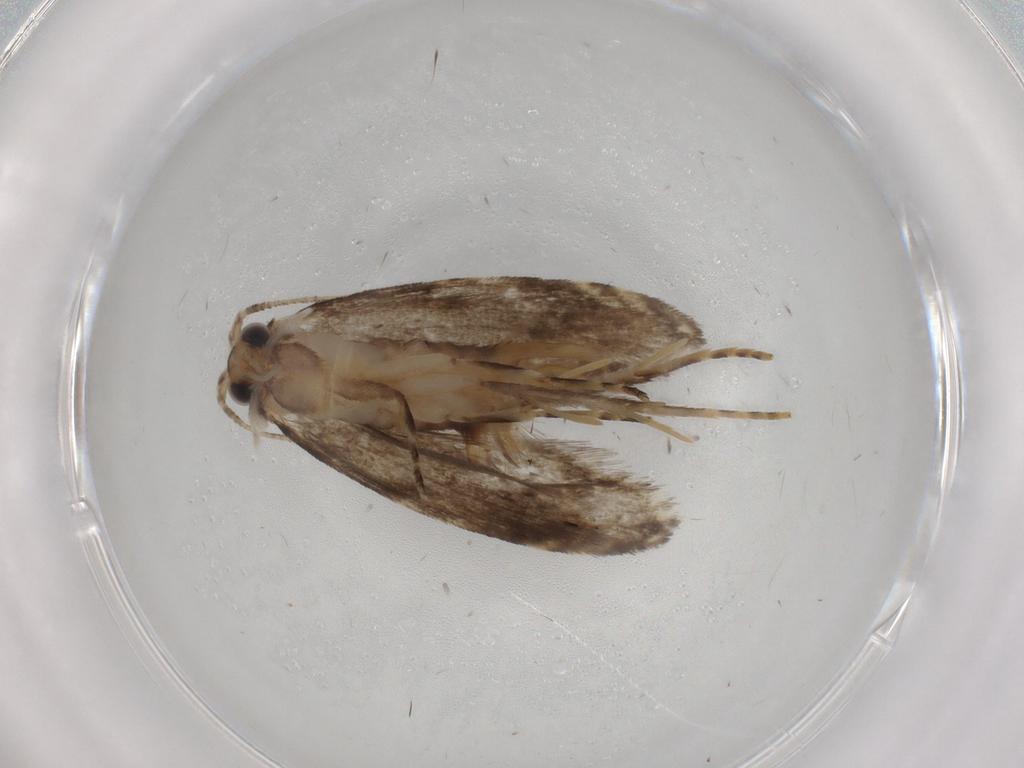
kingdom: Animalia
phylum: Arthropoda
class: Insecta
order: Lepidoptera
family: Tineidae
